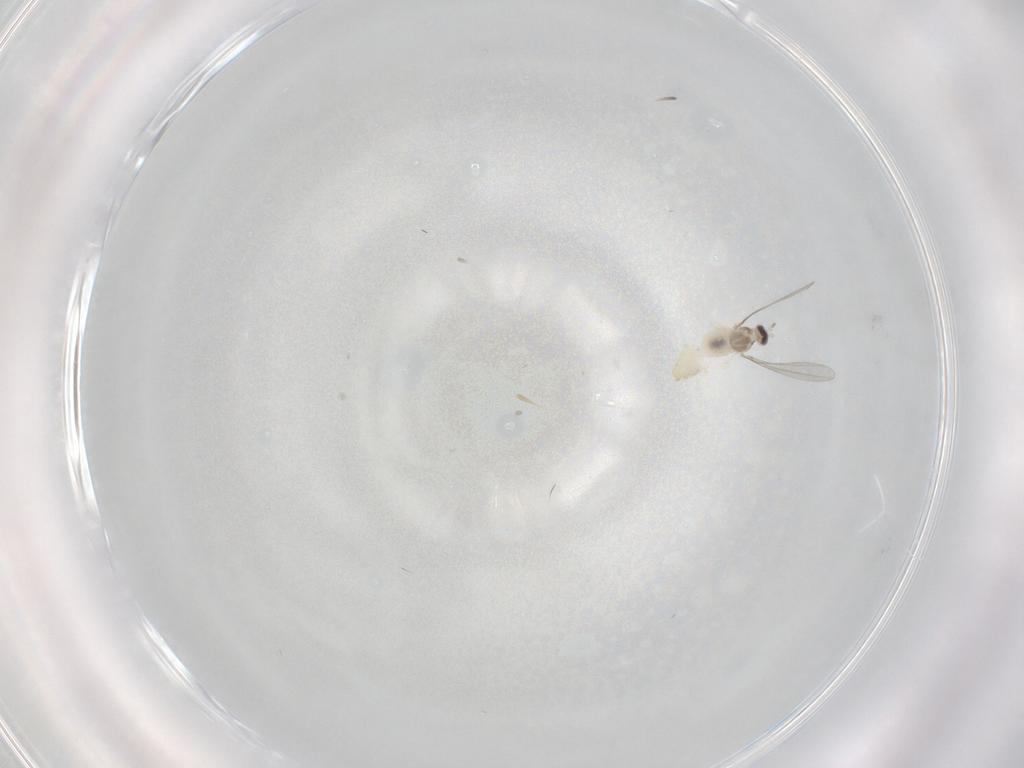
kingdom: Animalia
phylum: Arthropoda
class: Insecta
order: Diptera
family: Cecidomyiidae
